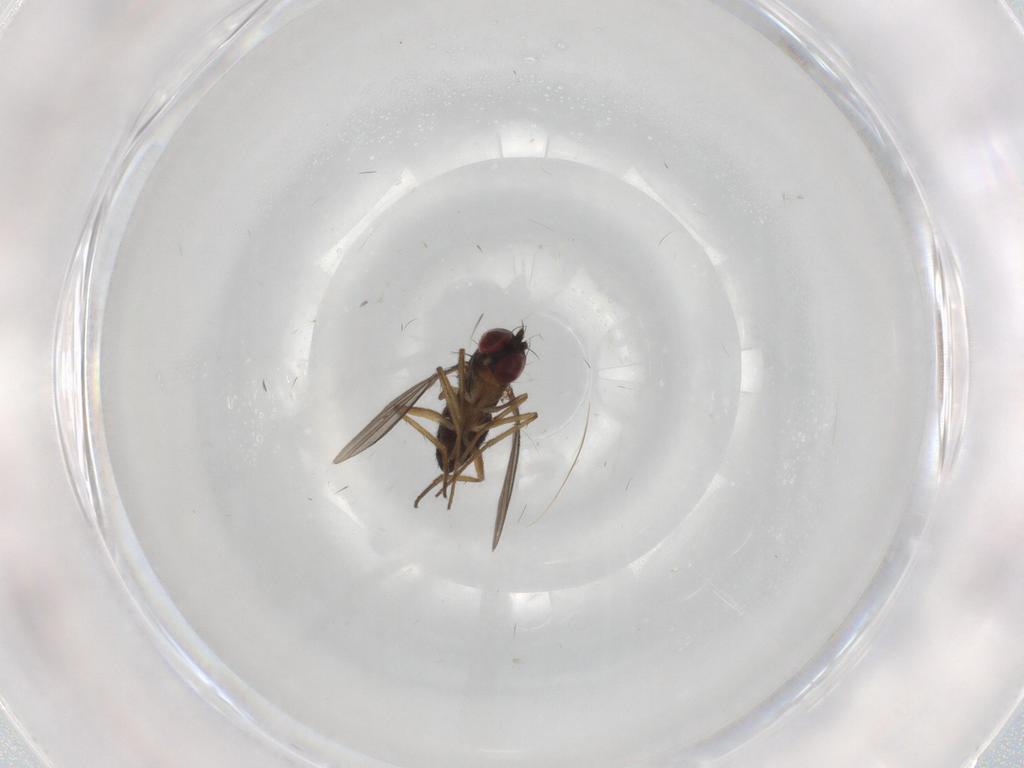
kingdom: Animalia
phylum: Arthropoda
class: Insecta
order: Diptera
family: Dolichopodidae
